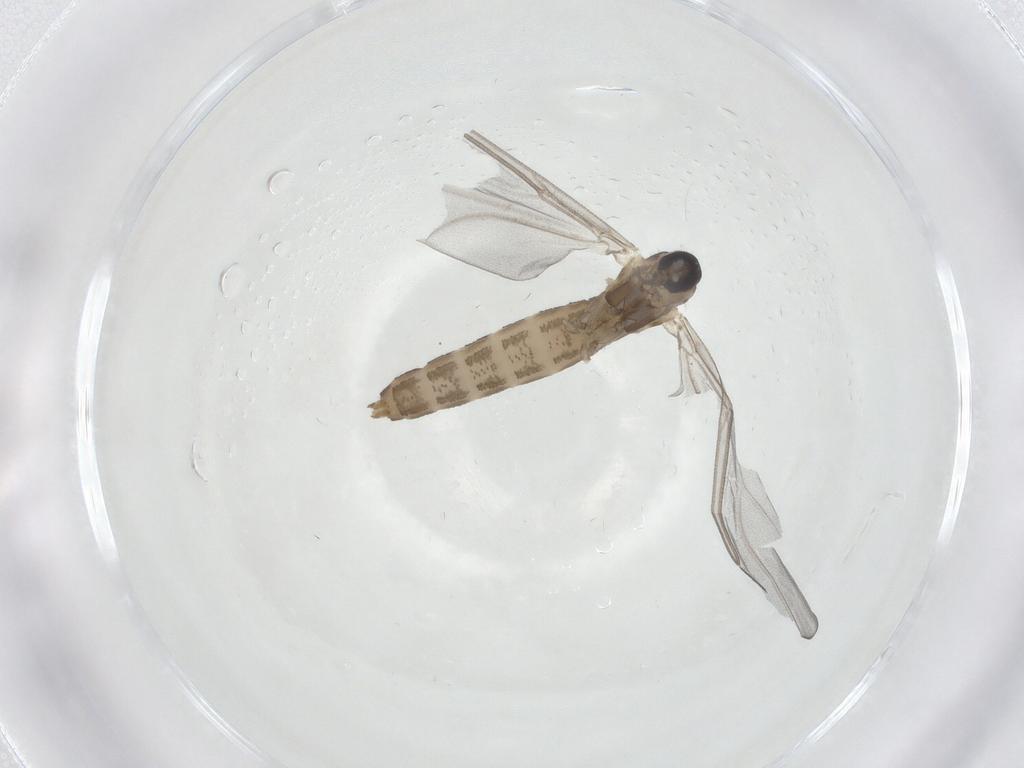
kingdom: Animalia
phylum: Arthropoda
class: Insecta
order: Diptera
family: Cecidomyiidae
